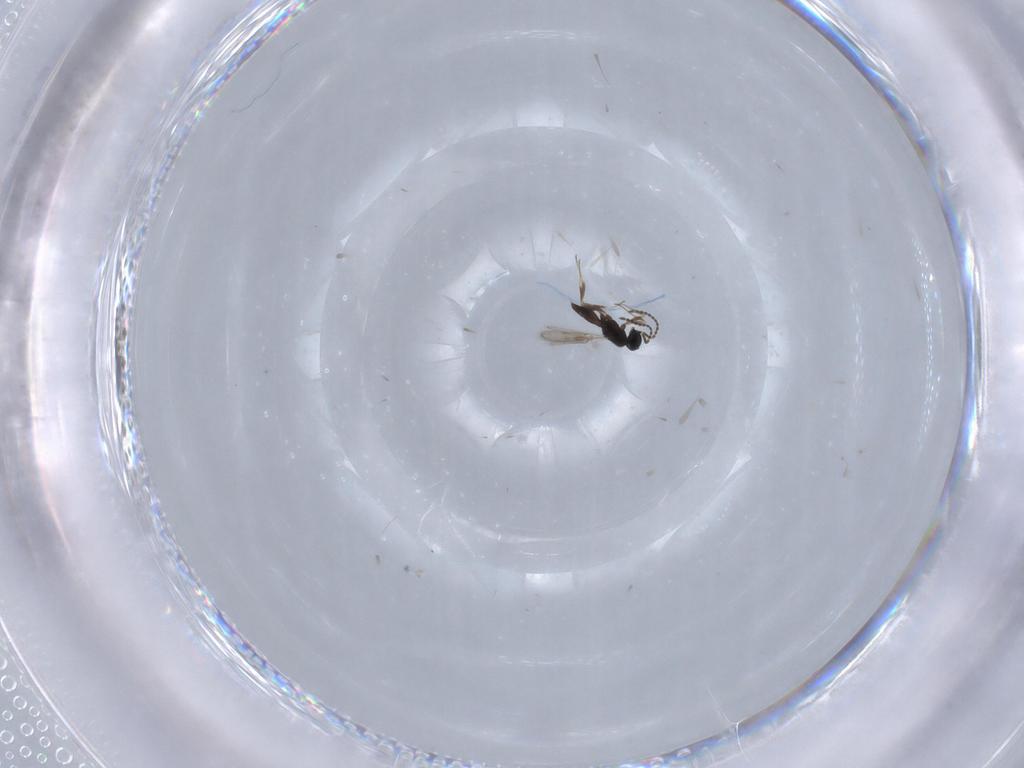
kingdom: Animalia
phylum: Arthropoda
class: Insecta
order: Hymenoptera
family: Scelionidae
